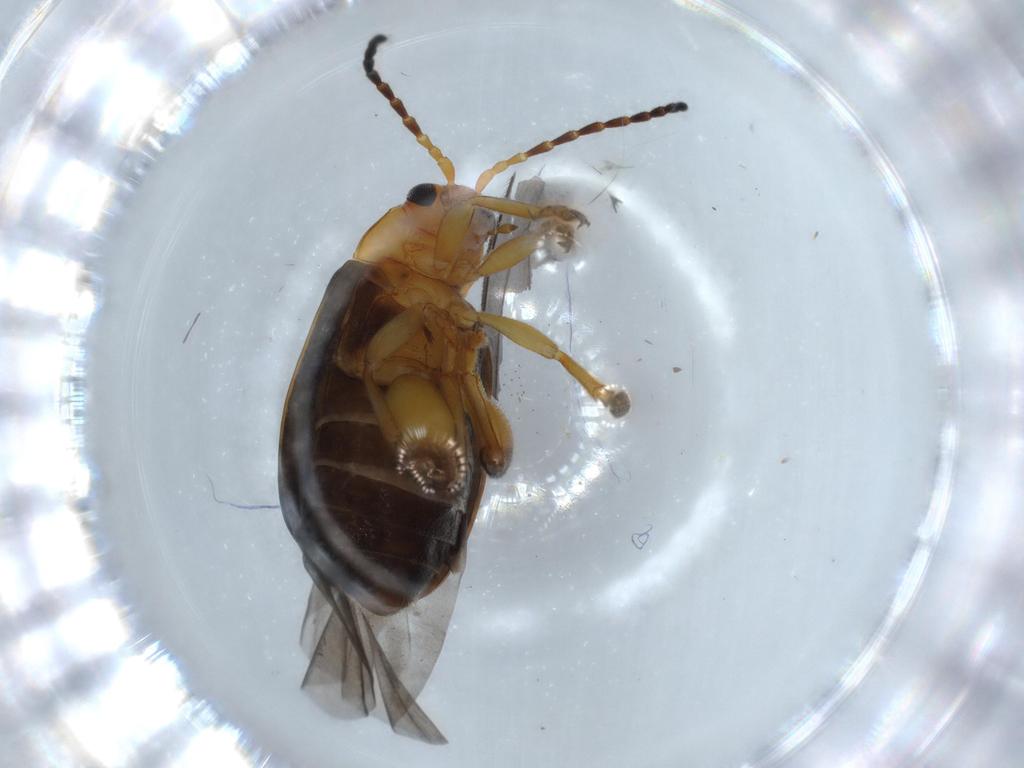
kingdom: Animalia
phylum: Arthropoda
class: Insecta
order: Coleoptera
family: Chrysomelidae
